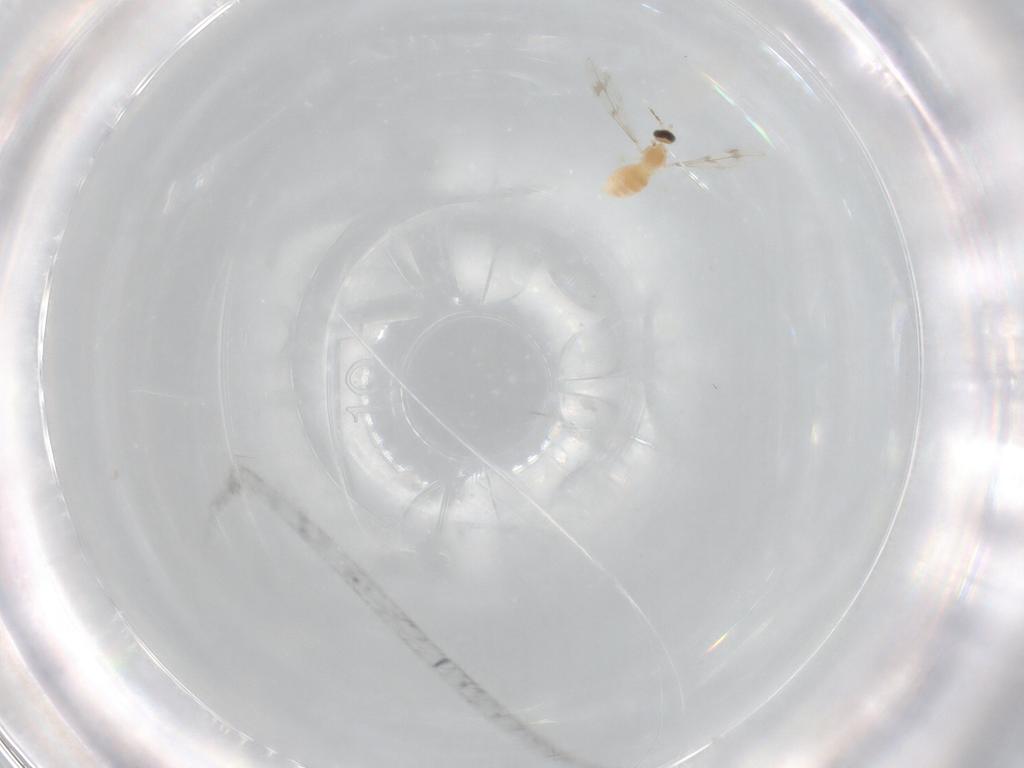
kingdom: Animalia
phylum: Arthropoda
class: Insecta
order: Diptera
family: Cecidomyiidae
